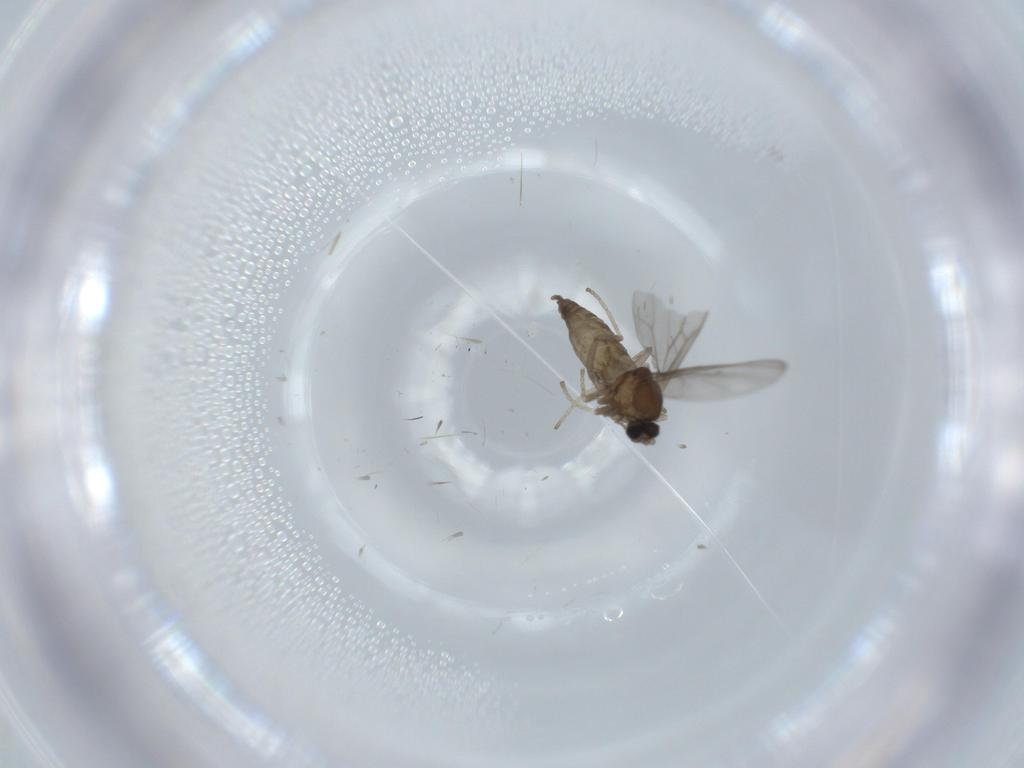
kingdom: Animalia
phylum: Arthropoda
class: Insecta
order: Diptera
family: Cecidomyiidae
